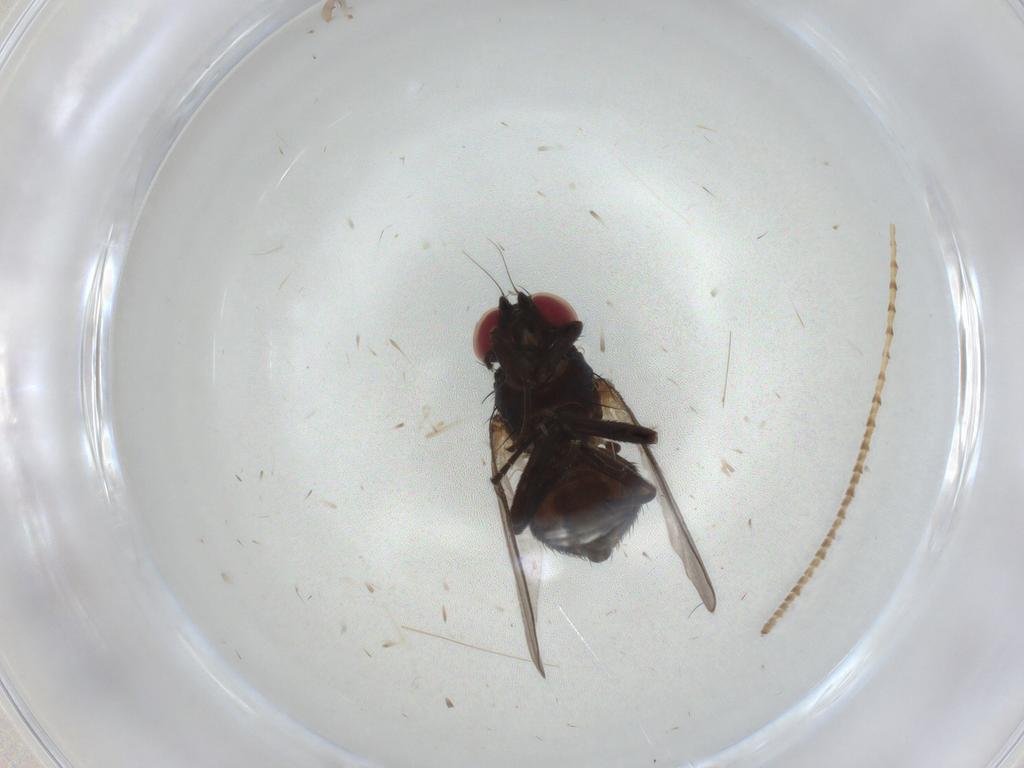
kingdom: Animalia
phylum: Arthropoda
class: Insecta
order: Diptera
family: Agromyzidae
